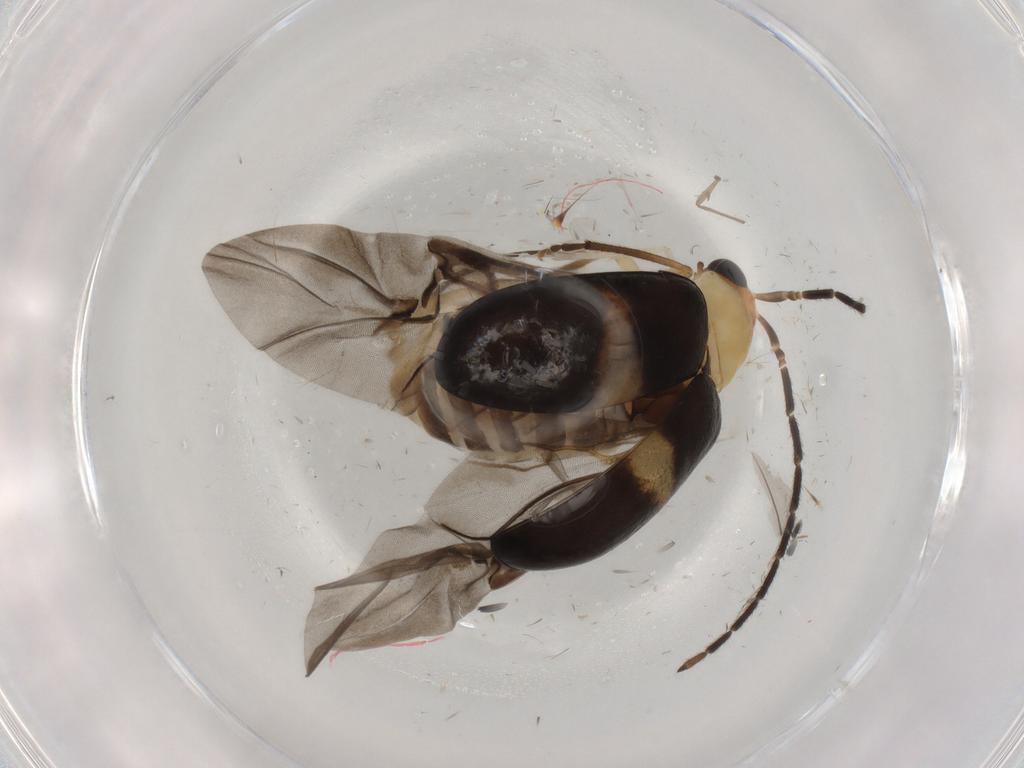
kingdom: Animalia
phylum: Arthropoda
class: Insecta
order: Coleoptera
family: Chrysomelidae
